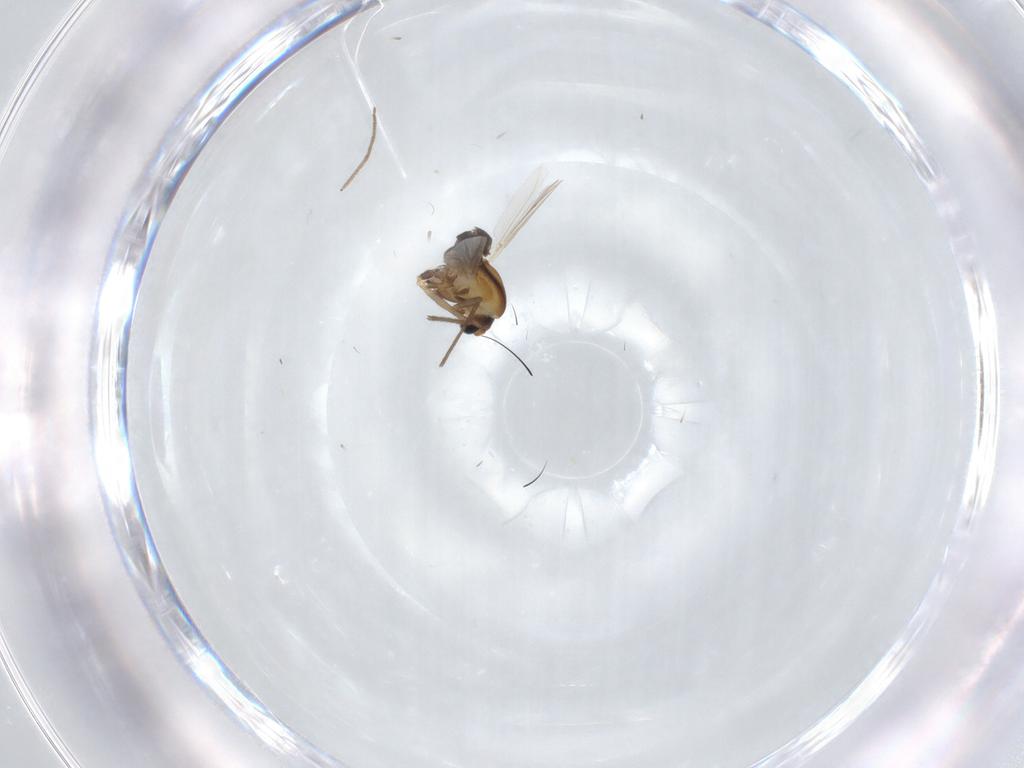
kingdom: Animalia
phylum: Arthropoda
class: Insecta
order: Diptera
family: Chironomidae
